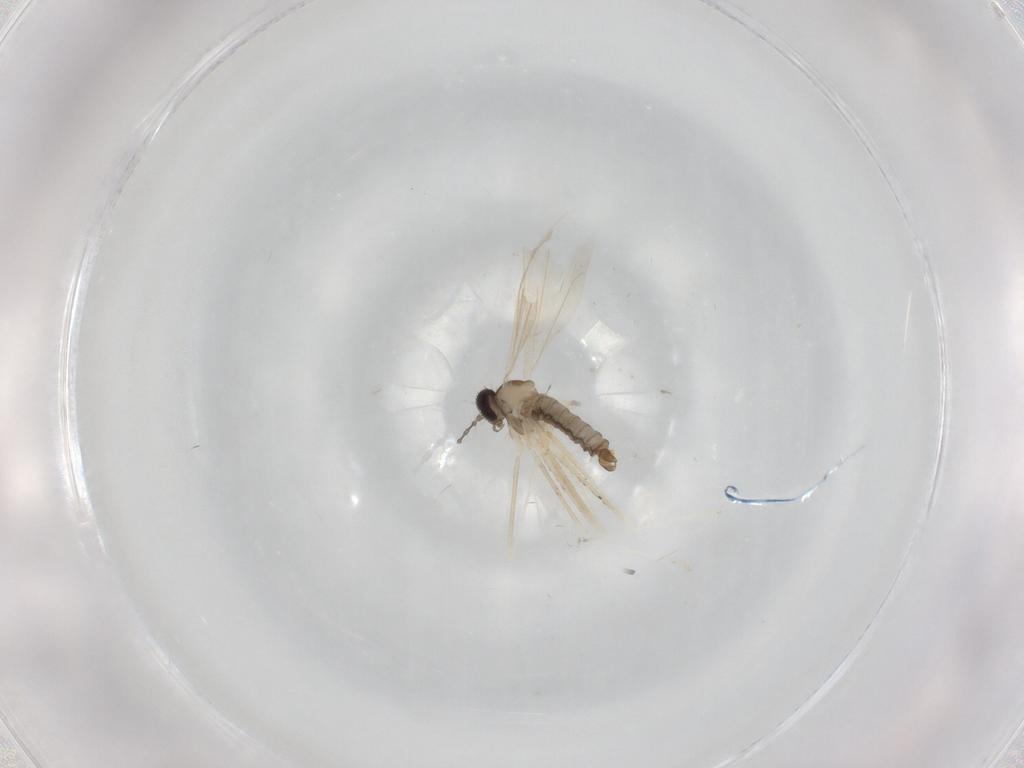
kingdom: Animalia
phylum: Arthropoda
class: Insecta
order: Diptera
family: Cecidomyiidae
